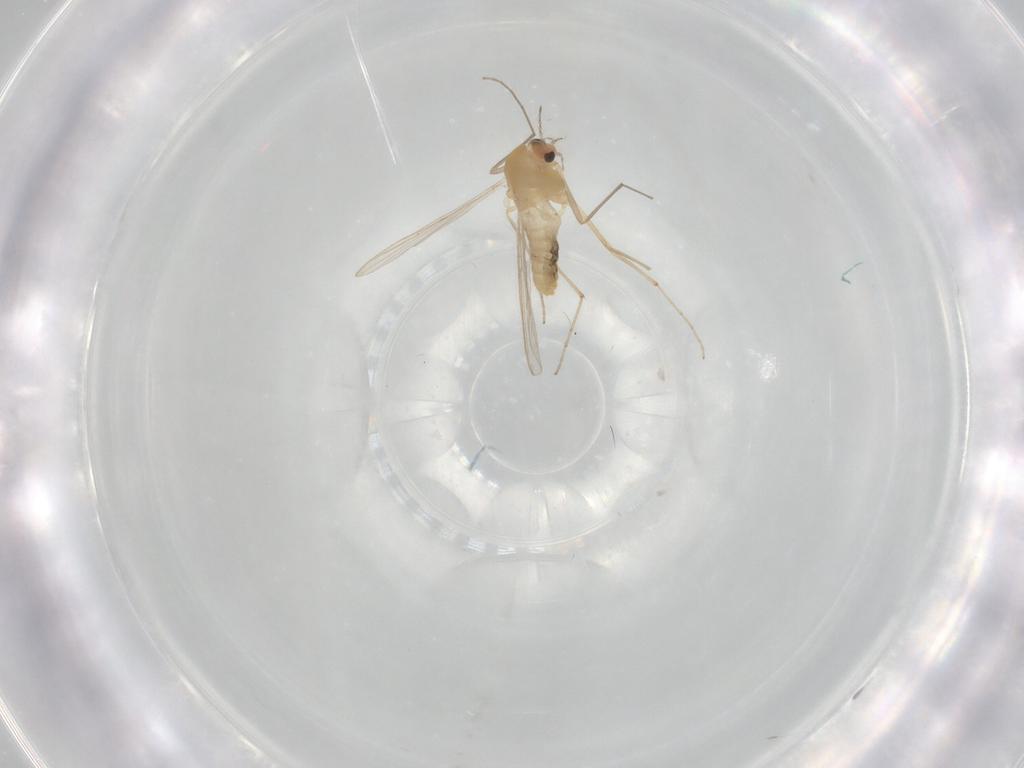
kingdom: Animalia
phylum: Arthropoda
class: Insecta
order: Diptera
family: Chironomidae
